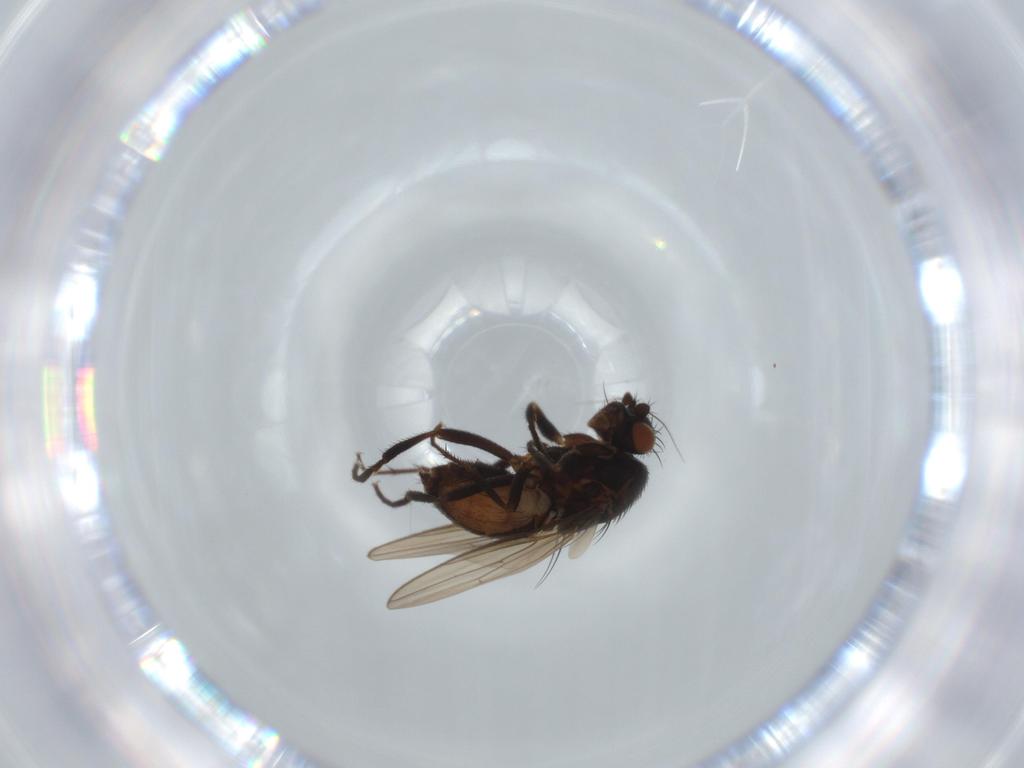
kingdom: Animalia
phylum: Arthropoda
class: Insecta
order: Diptera
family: Sphaeroceridae
